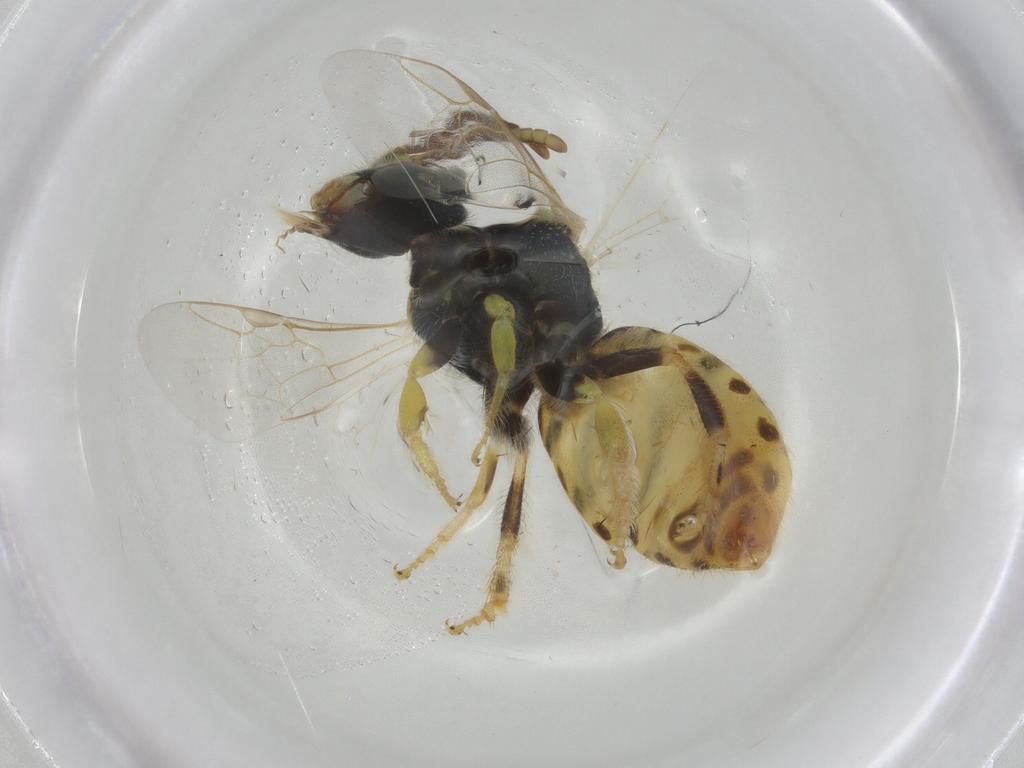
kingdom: Animalia
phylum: Arthropoda
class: Insecta
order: Hymenoptera
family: Halictidae
